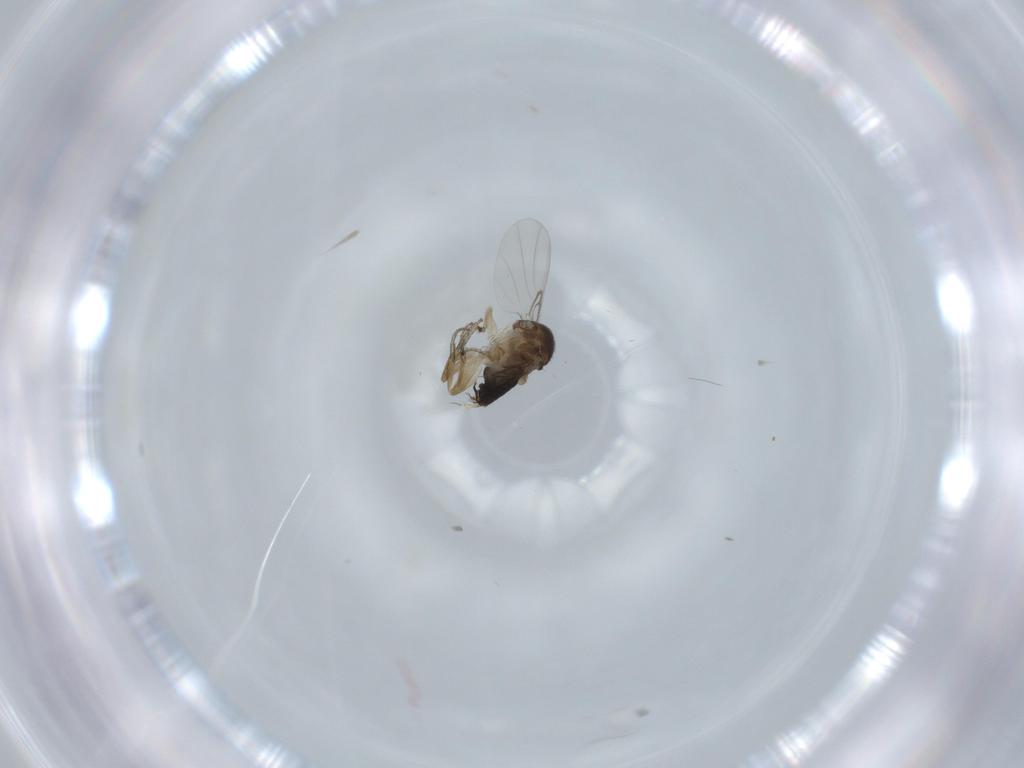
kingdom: Animalia
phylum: Arthropoda
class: Insecta
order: Diptera
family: Phoridae
